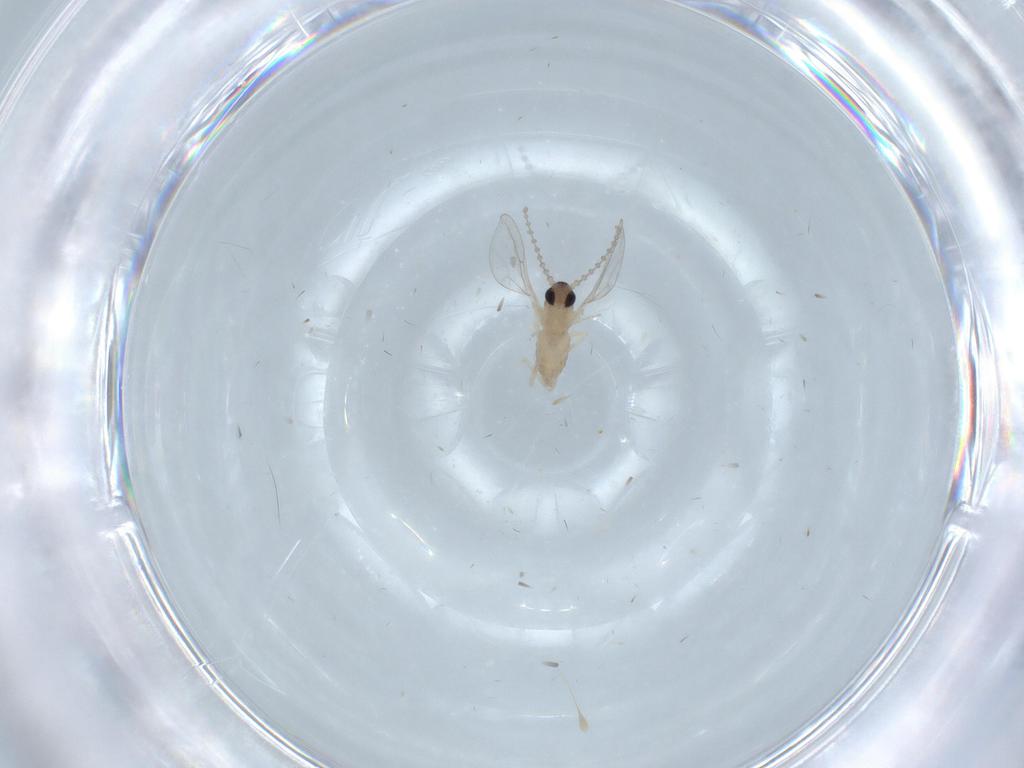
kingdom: Animalia
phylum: Arthropoda
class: Insecta
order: Diptera
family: Cecidomyiidae
